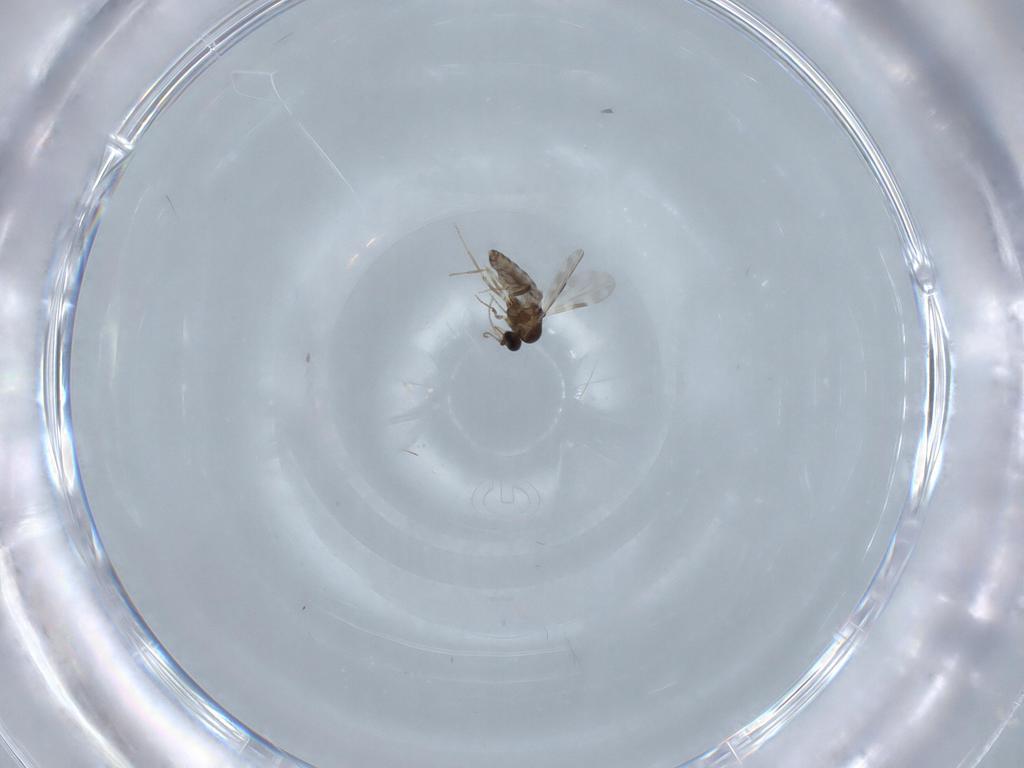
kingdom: Animalia
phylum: Arthropoda
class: Insecta
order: Diptera
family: Ceratopogonidae
